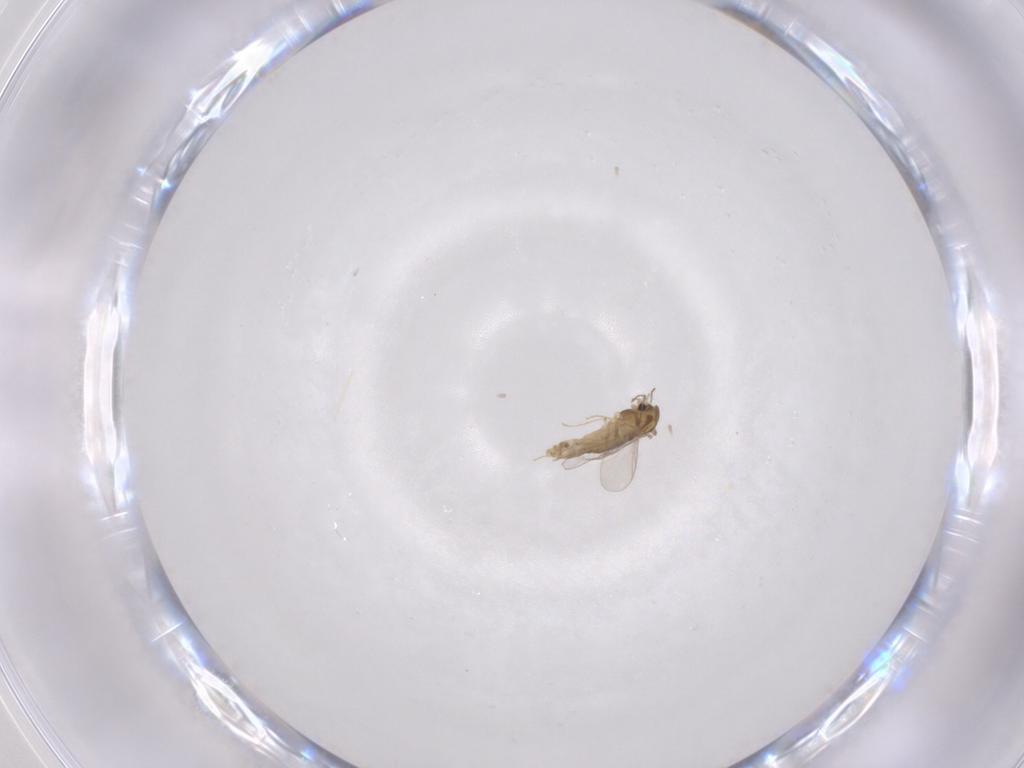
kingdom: Animalia
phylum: Arthropoda
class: Insecta
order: Diptera
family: Chironomidae
